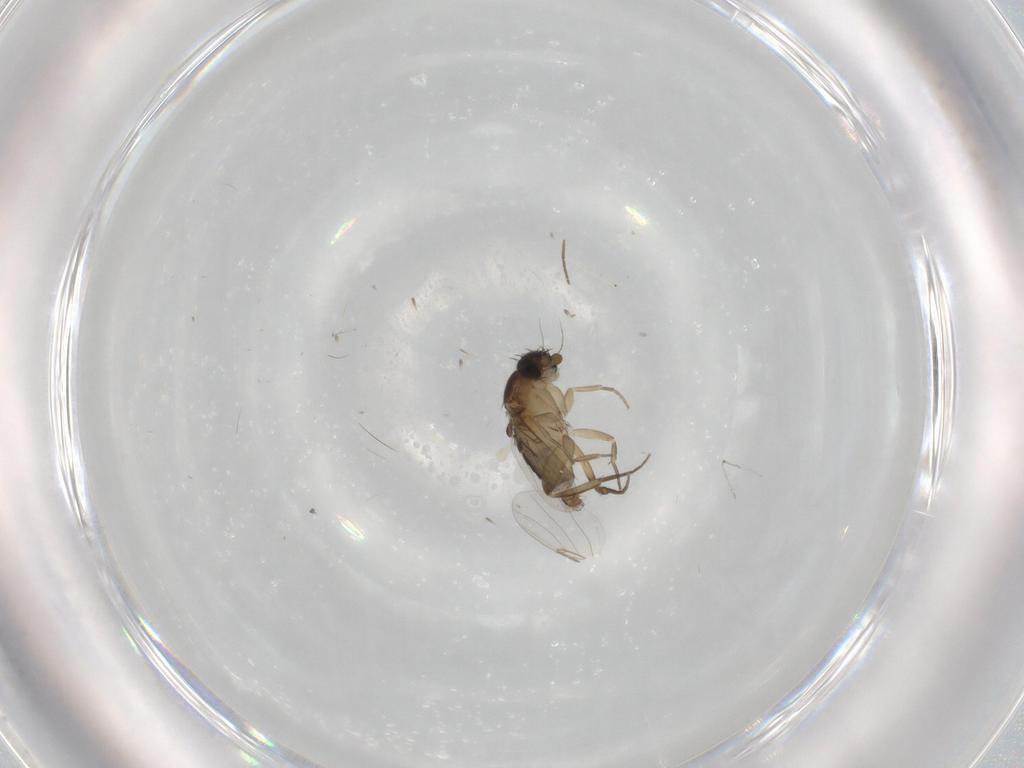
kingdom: Animalia
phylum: Arthropoda
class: Insecta
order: Diptera
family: Phoridae
